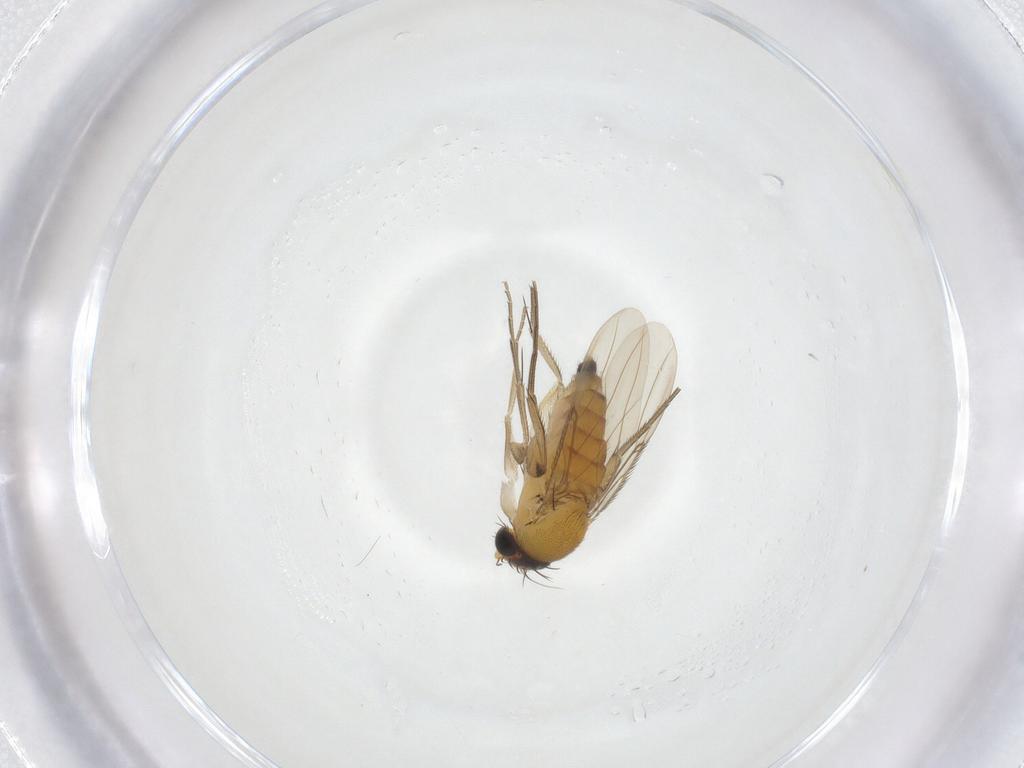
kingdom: Animalia
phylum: Arthropoda
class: Insecta
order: Diptera
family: Phoridae
